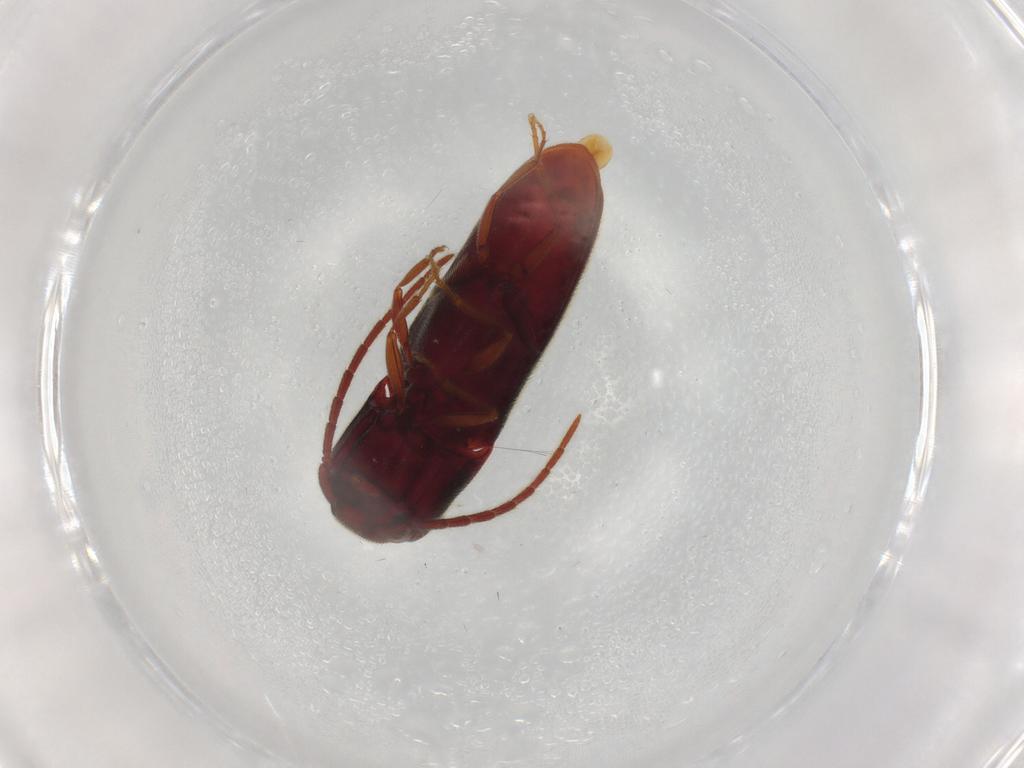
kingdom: Animalia
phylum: Arthropoda
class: Insecta
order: Coleoptera
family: Eucnemidae
